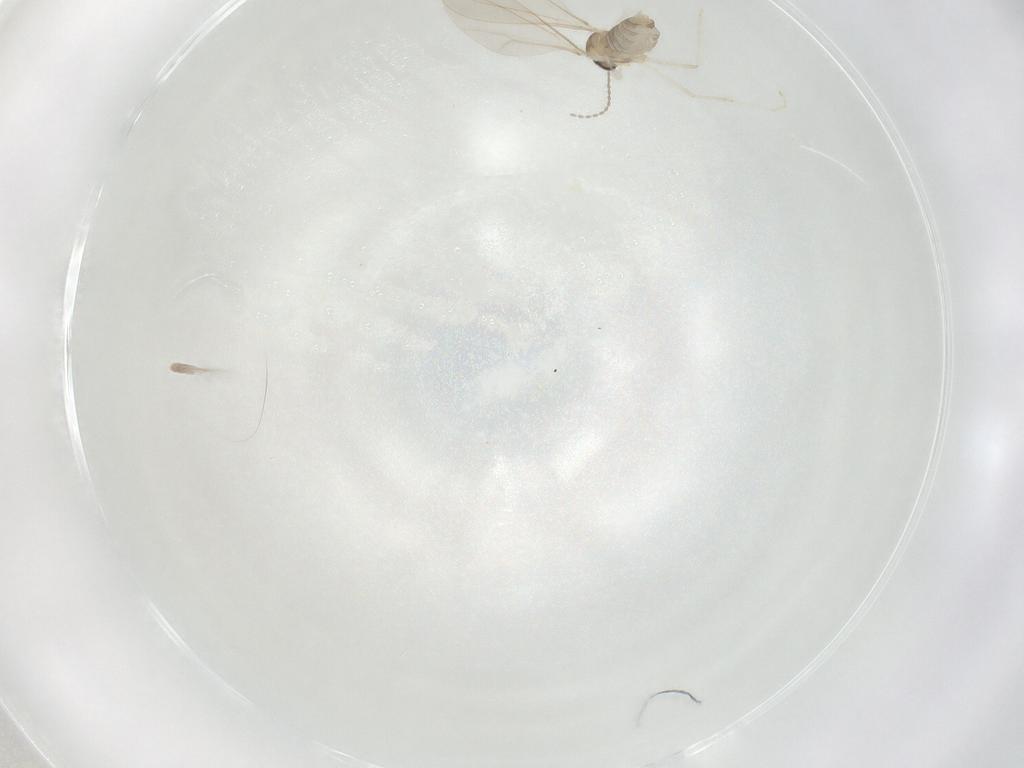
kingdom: Animalia
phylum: Arthropoda
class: Insecta
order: Diptera
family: Cecidomyiidae
